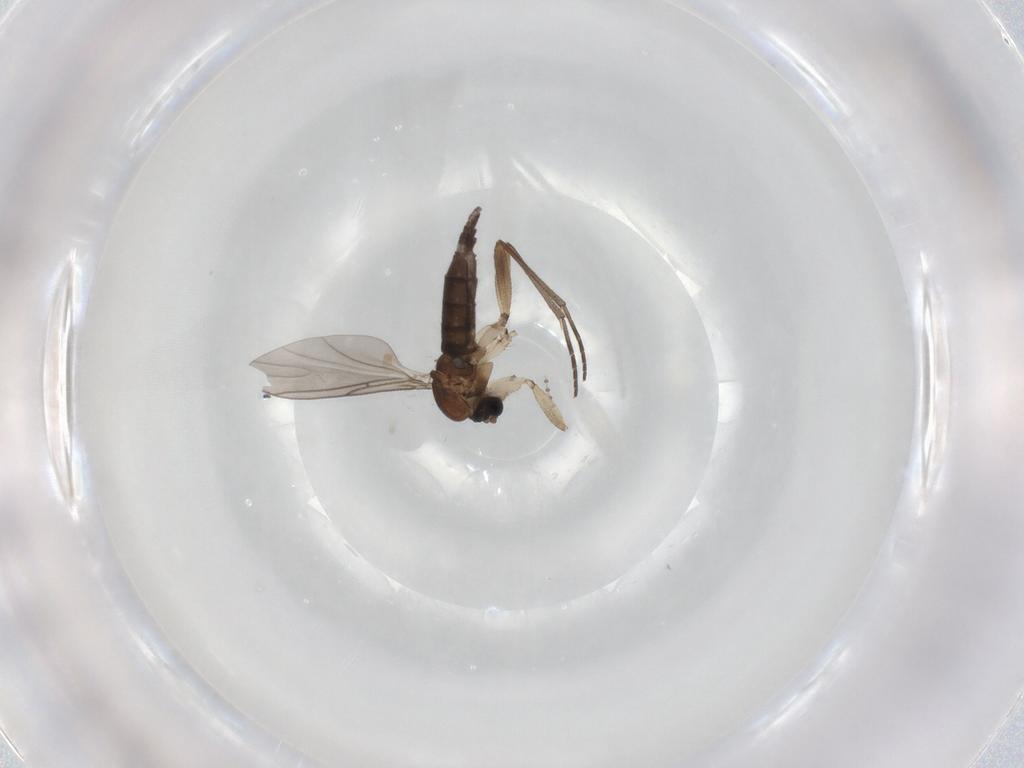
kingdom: Animalia
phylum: Arthropoda
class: Insecta
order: Diptera
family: Sciaridae
